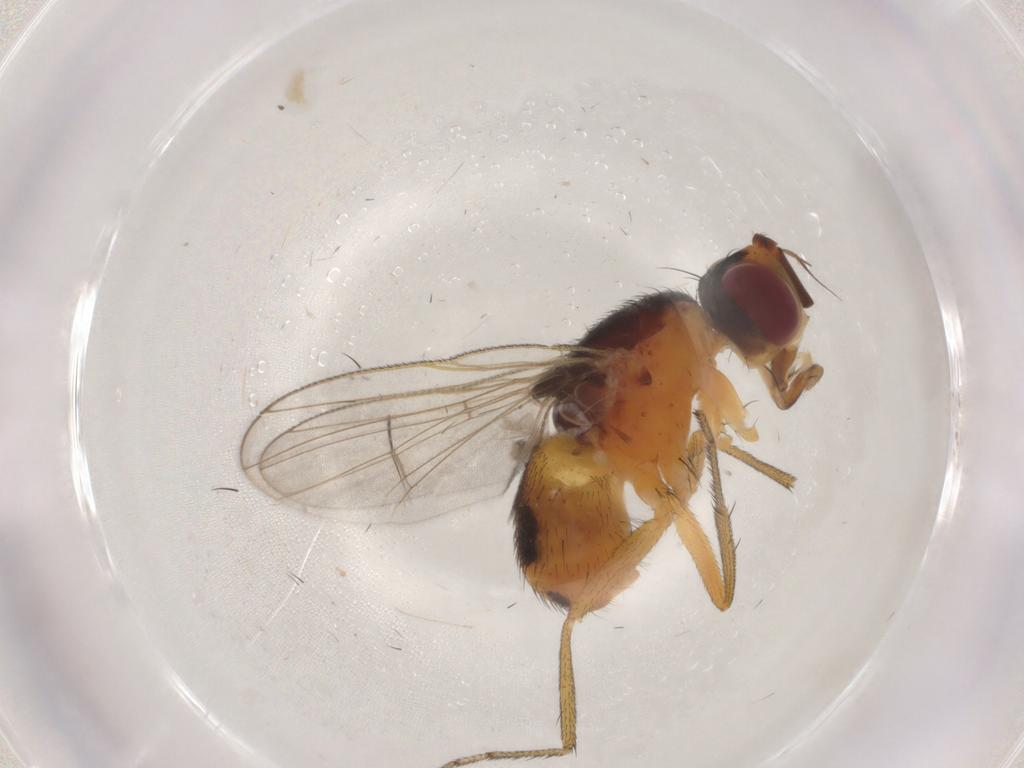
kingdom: Animalia
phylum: Arthropoda
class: Insecta
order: Diptera
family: Muscidae
